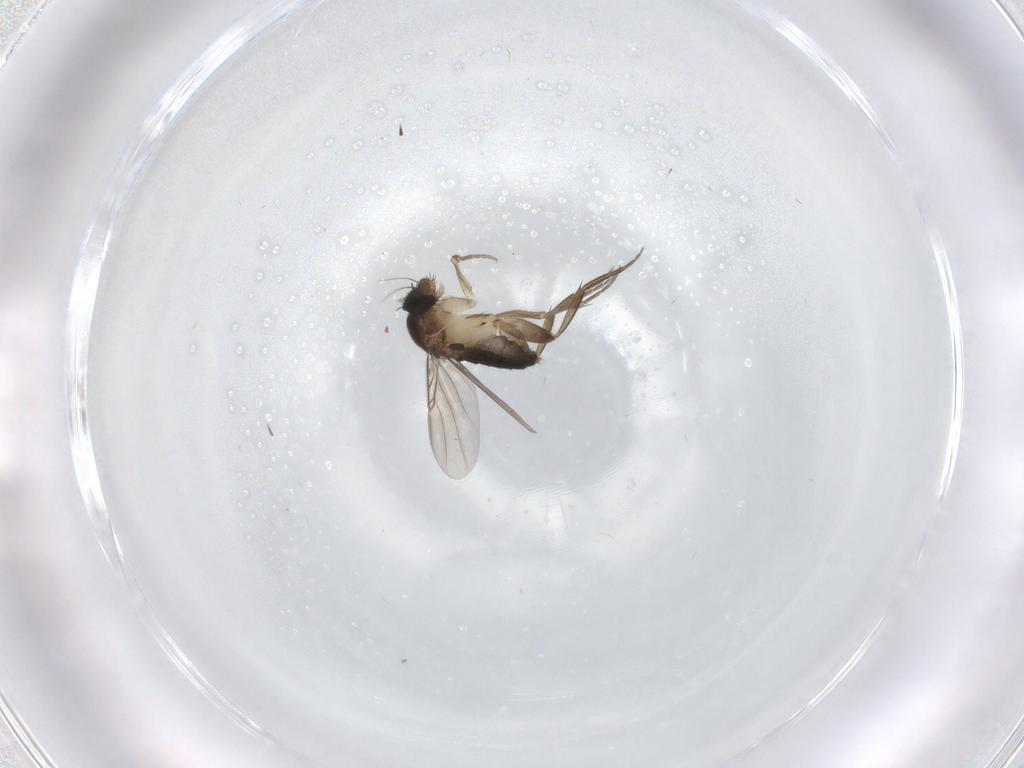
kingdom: Animalia
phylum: Arthropoda
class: Insecta
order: Diptera
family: Phoridae
